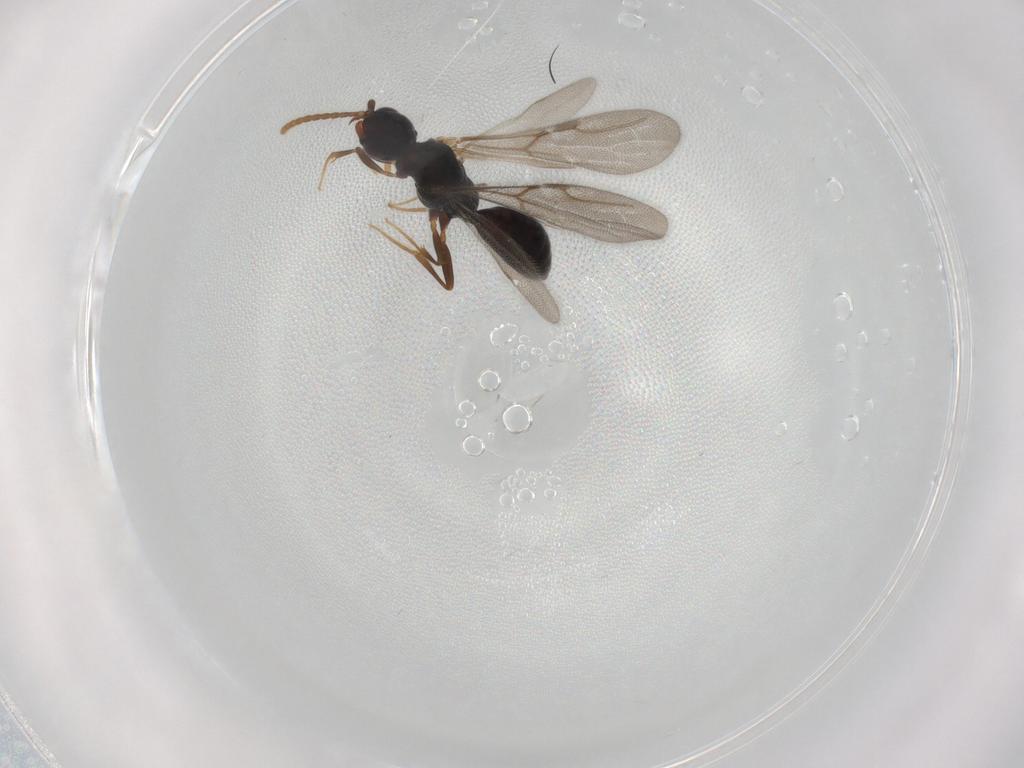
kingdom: Animalia
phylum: Arthropoda
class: Insecta
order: Hymenoptera
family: Bethylidae
